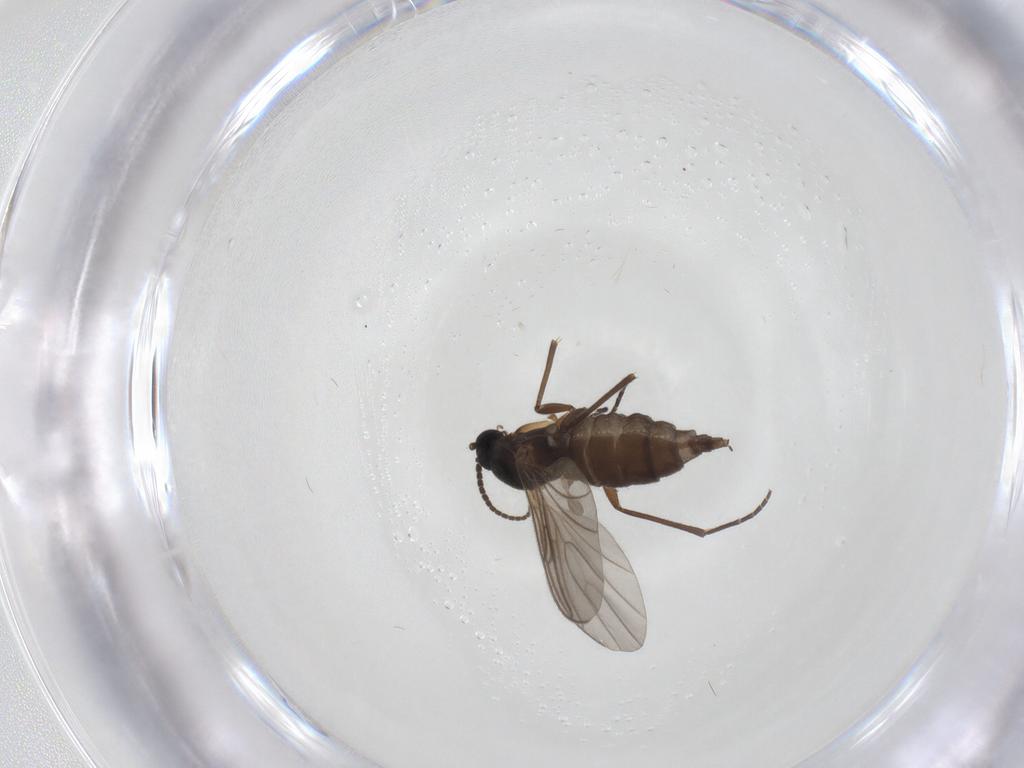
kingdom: Animalia
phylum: Arthropoda
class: Insecta
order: Diptera
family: Sciaridae
